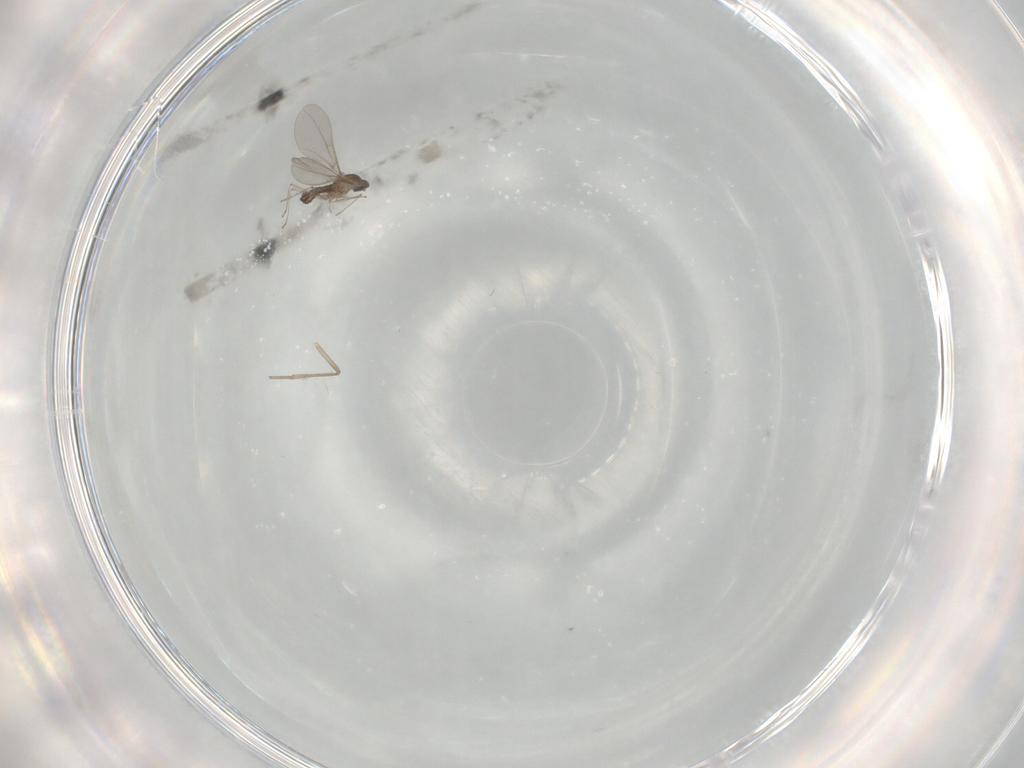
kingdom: Animalia
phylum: Arthropoda
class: Insecta
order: Diptera
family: Psychodidae
